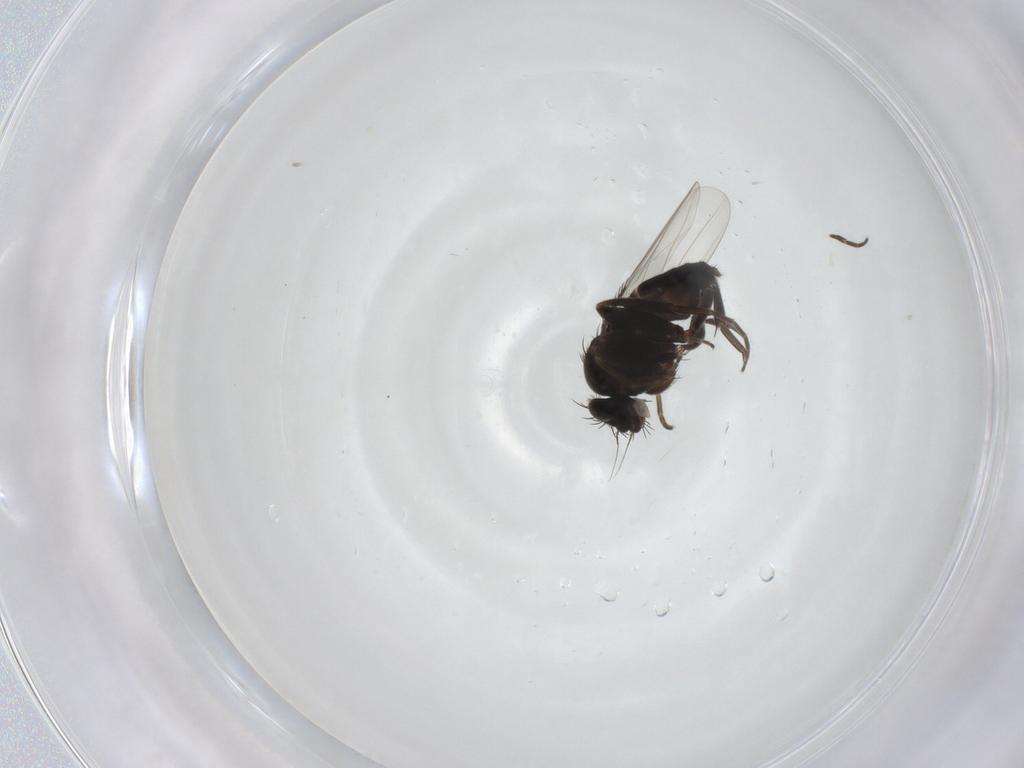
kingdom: Animalia
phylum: Arthropoda
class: Insecta
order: Diptera
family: Phoridae
